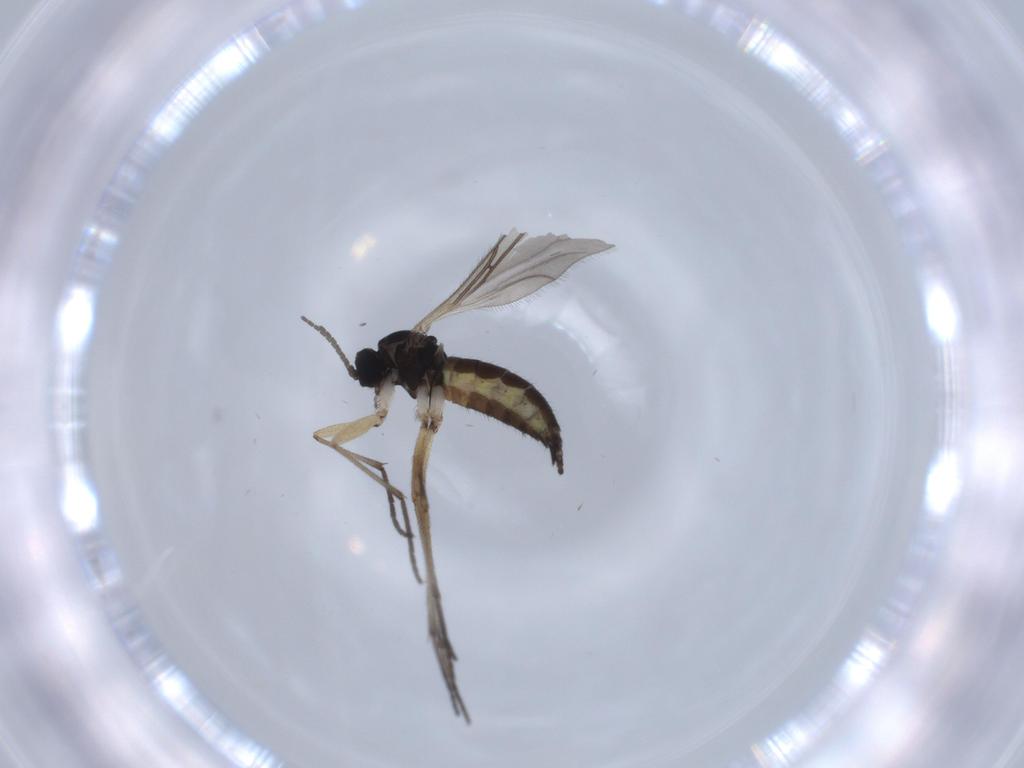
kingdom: Animalia
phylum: Arthropoda
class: Insecta
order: Diptera
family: Sciaridae
